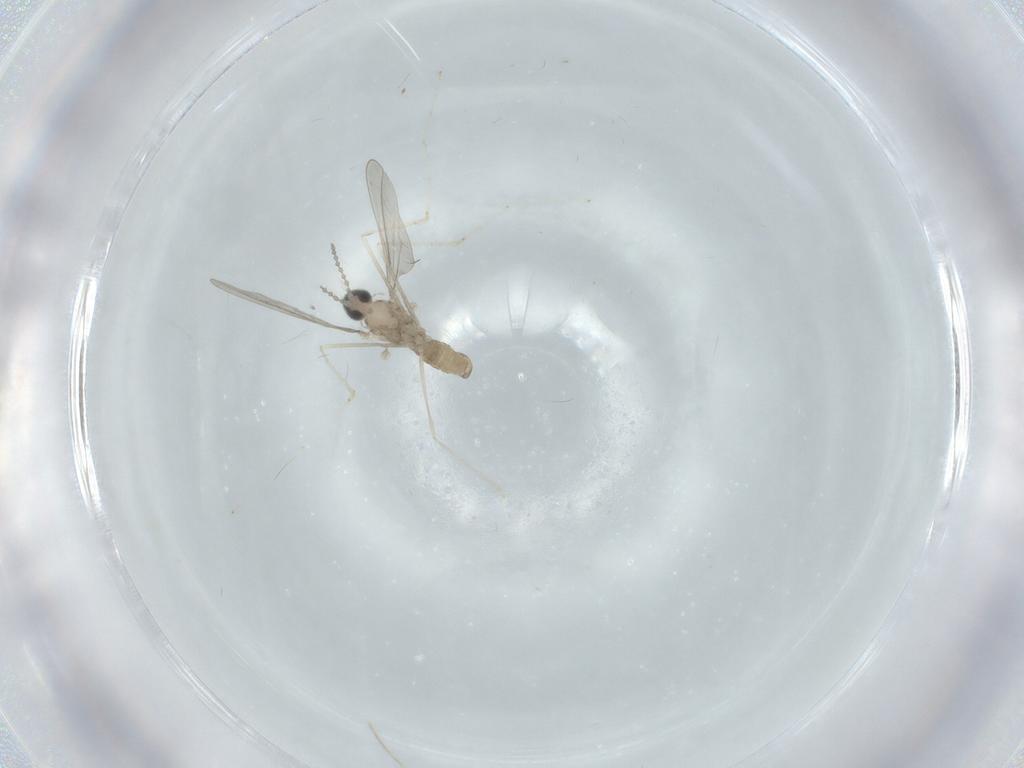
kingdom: Animalia
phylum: Arthropoda
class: Insecta
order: Diptera
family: Cecidomyiidae
